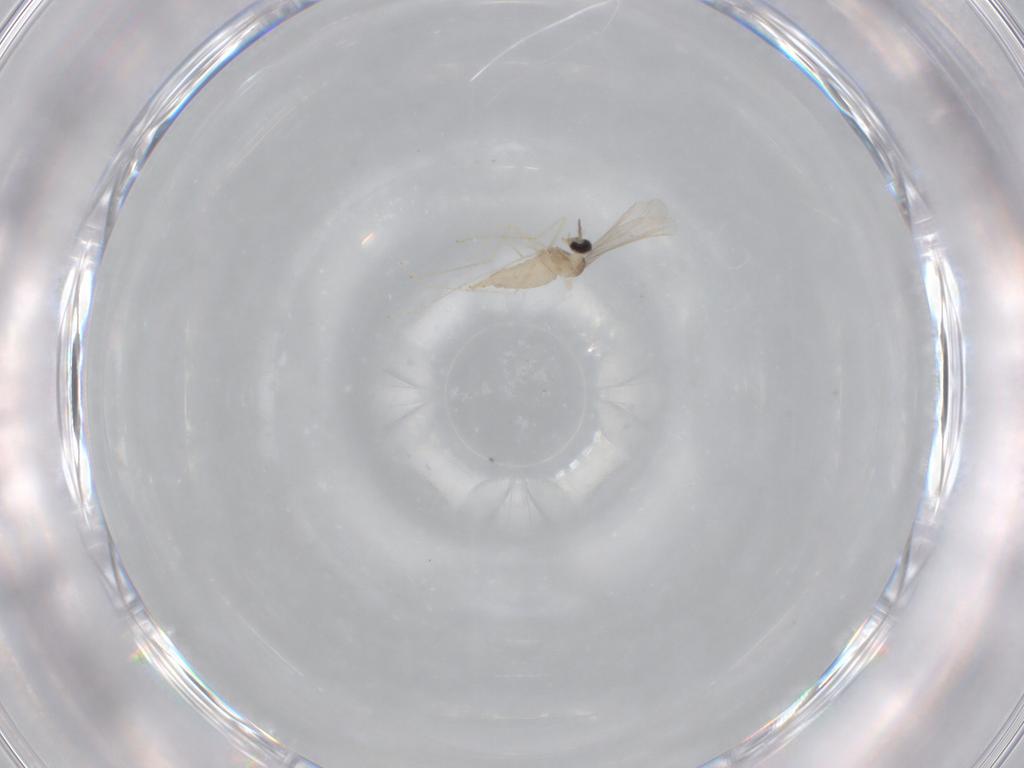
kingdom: Animalia
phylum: Arthropoda
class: Insecta
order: Diptera
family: Cecidomyiidae
